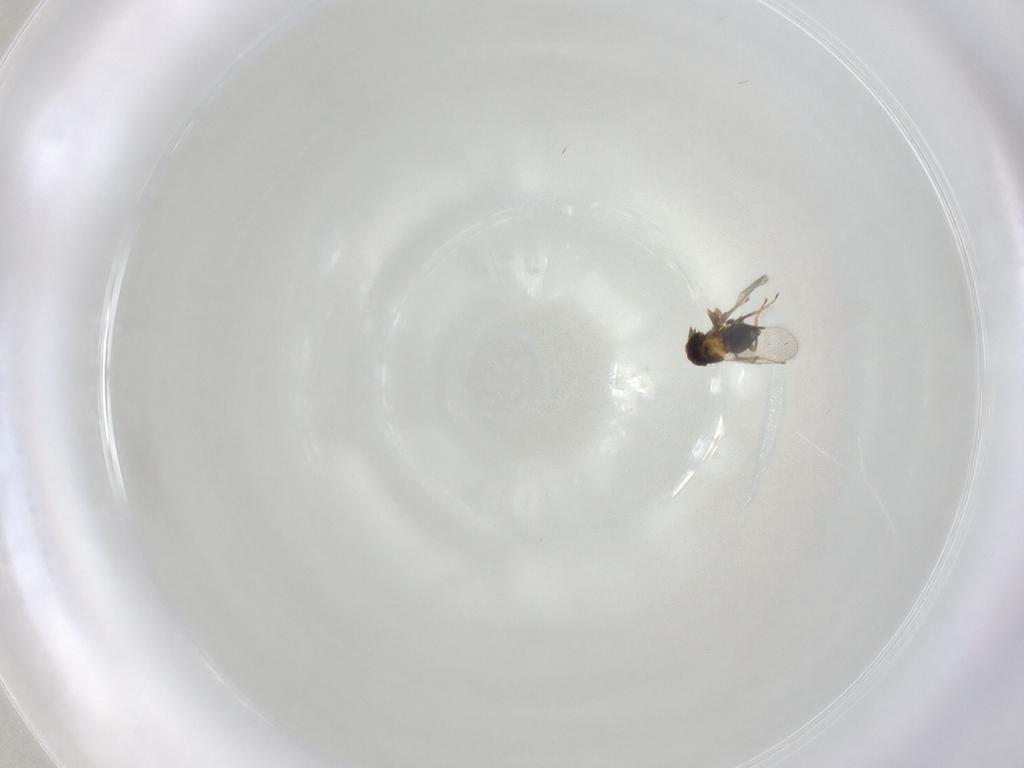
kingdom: Animalia
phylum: Arthropoda
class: Insecta
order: Hymenoptera
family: Trichogrammatidae
